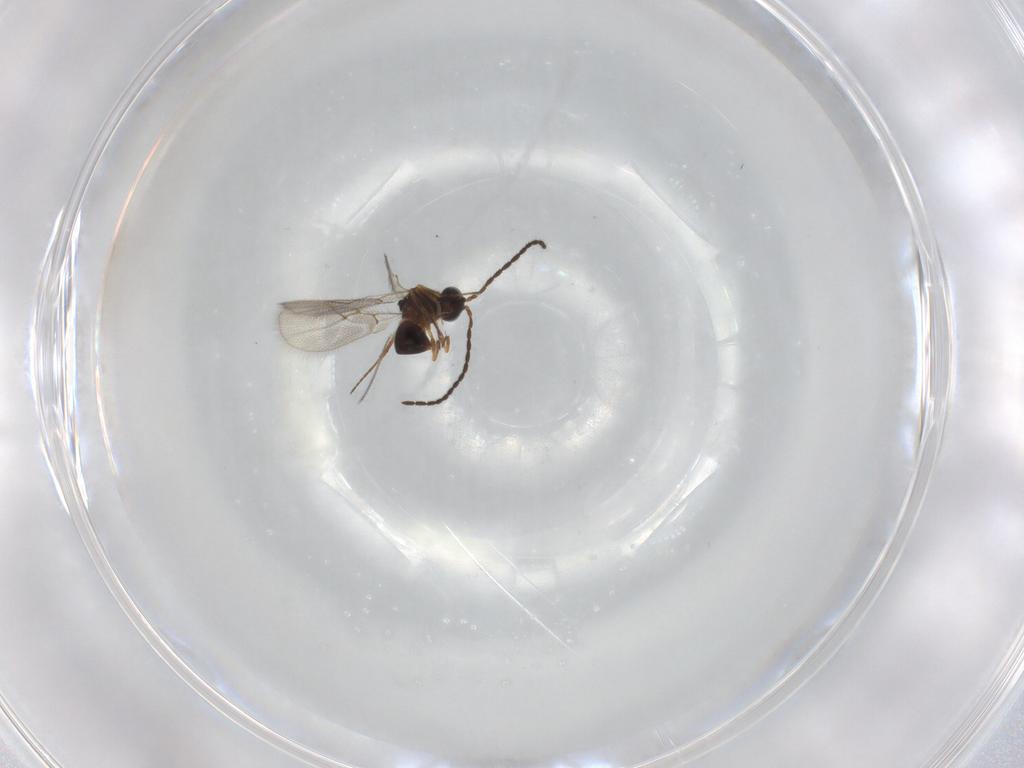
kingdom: Animalia
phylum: Arthropoda
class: Insecta
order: Hymenoptera
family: Figitidae
